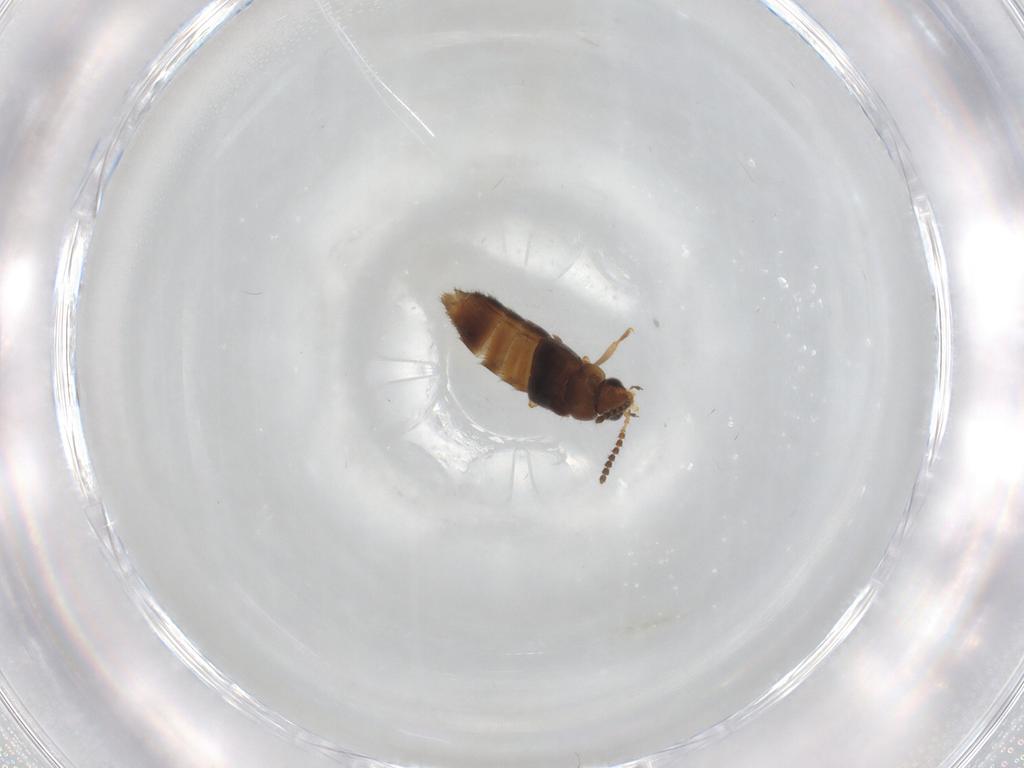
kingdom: Animalia
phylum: Arthropoda
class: Insecta
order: Coleoptera
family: Staphylinidae
